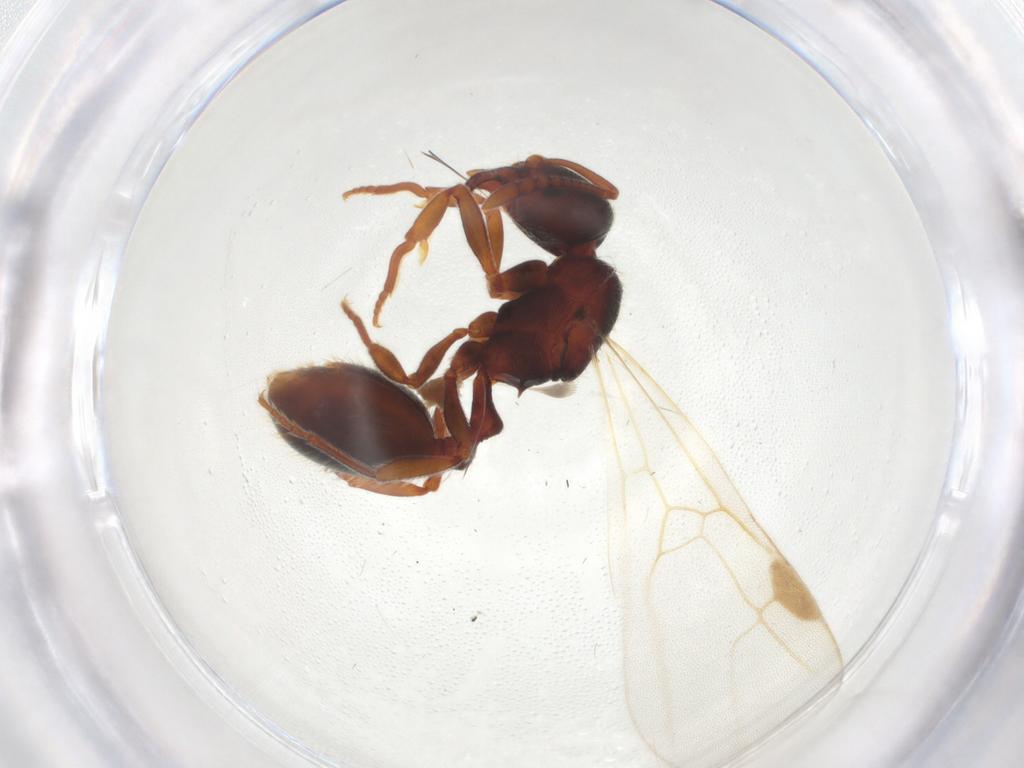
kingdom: Animalia
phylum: Arthropoda
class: Insecta
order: Hymenoptera
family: Formicidae
